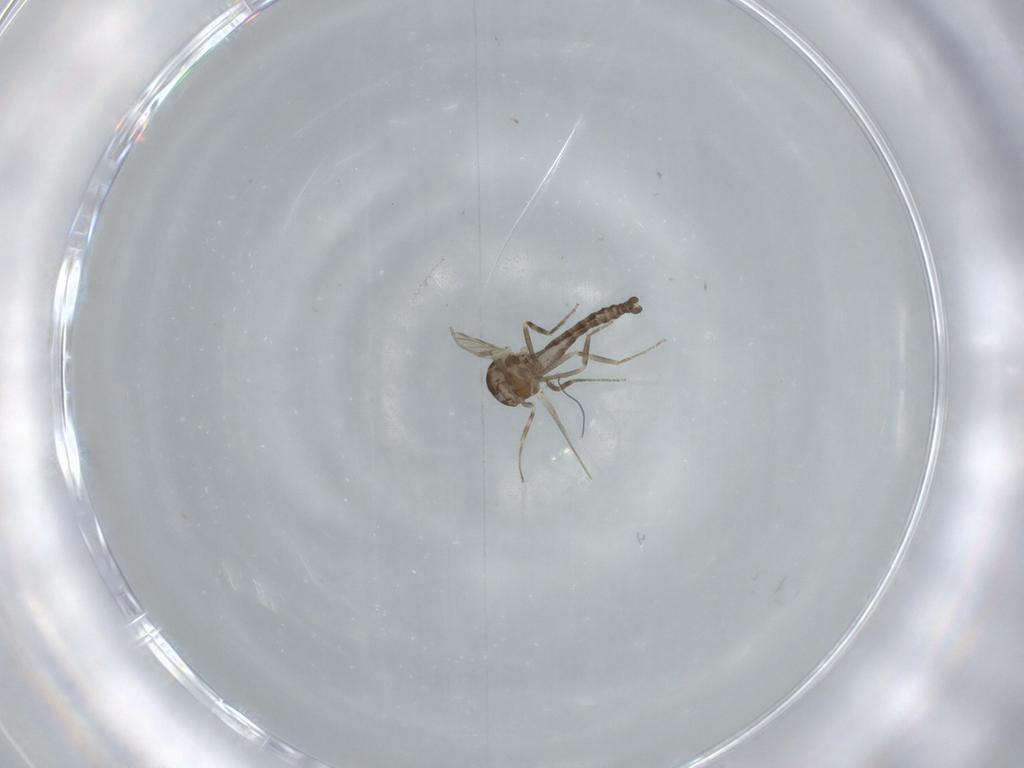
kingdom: Animalia
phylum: Arthropoda
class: Insecta
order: Diptera
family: Ceratopogonidae
